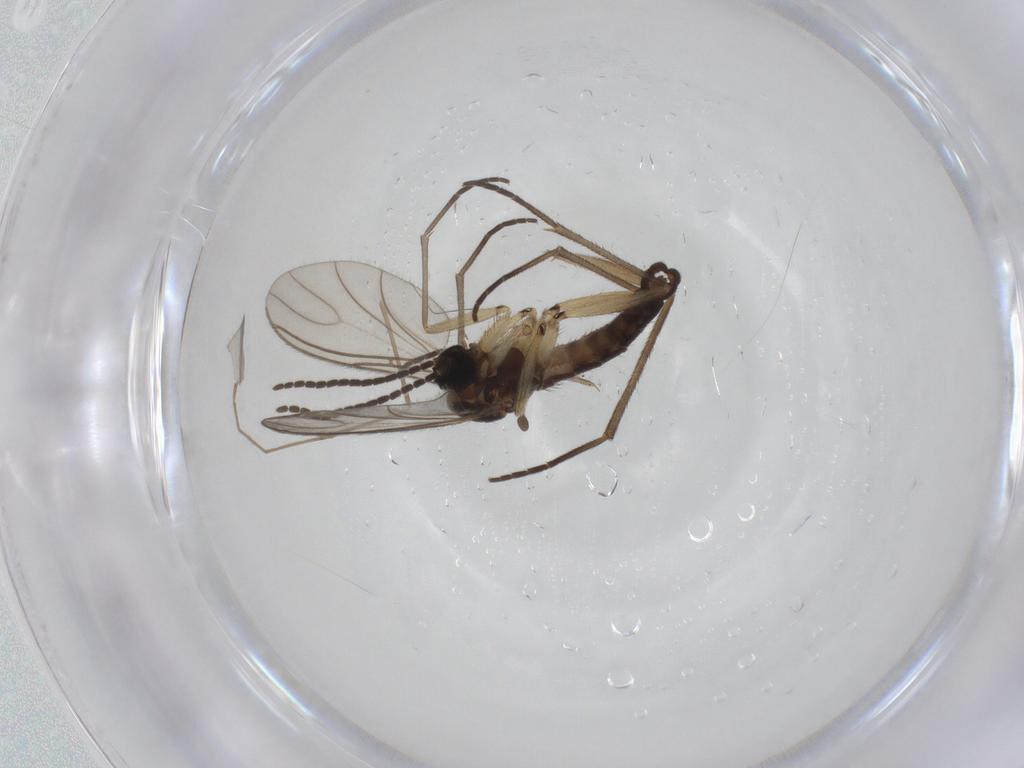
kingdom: Animalia
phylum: Arthropoda
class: Insecta
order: Diptera
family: Sciaridae
